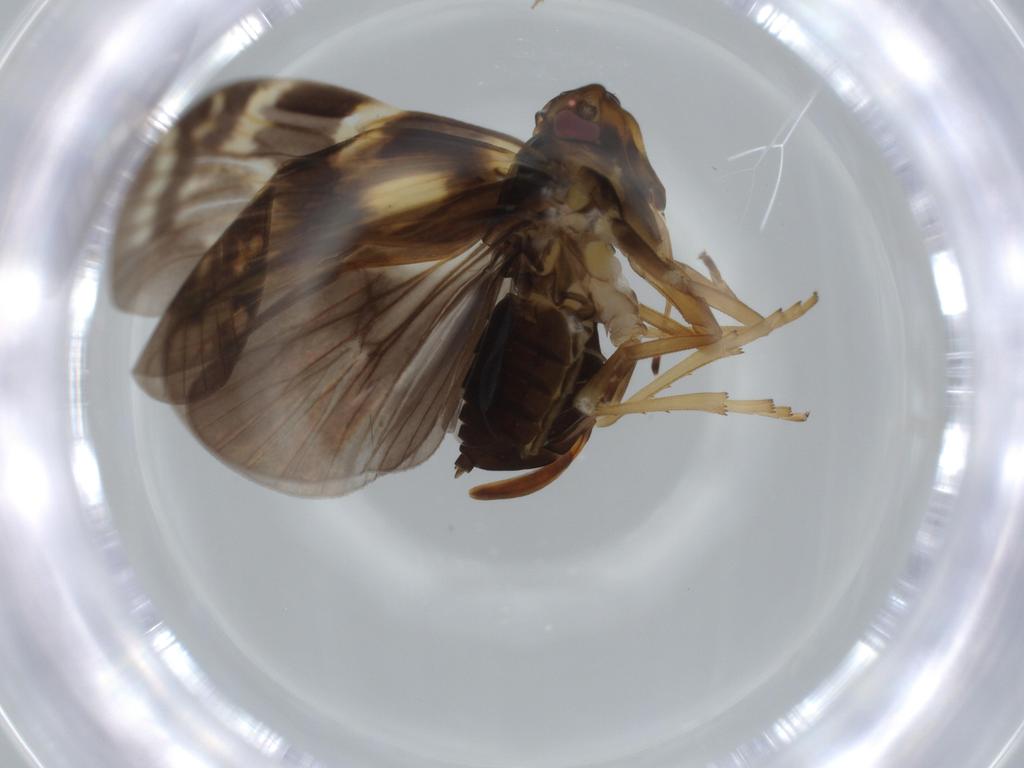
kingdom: Animalia
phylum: Arthropoda
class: Insecta
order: Hemiptera
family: Cixiidae
